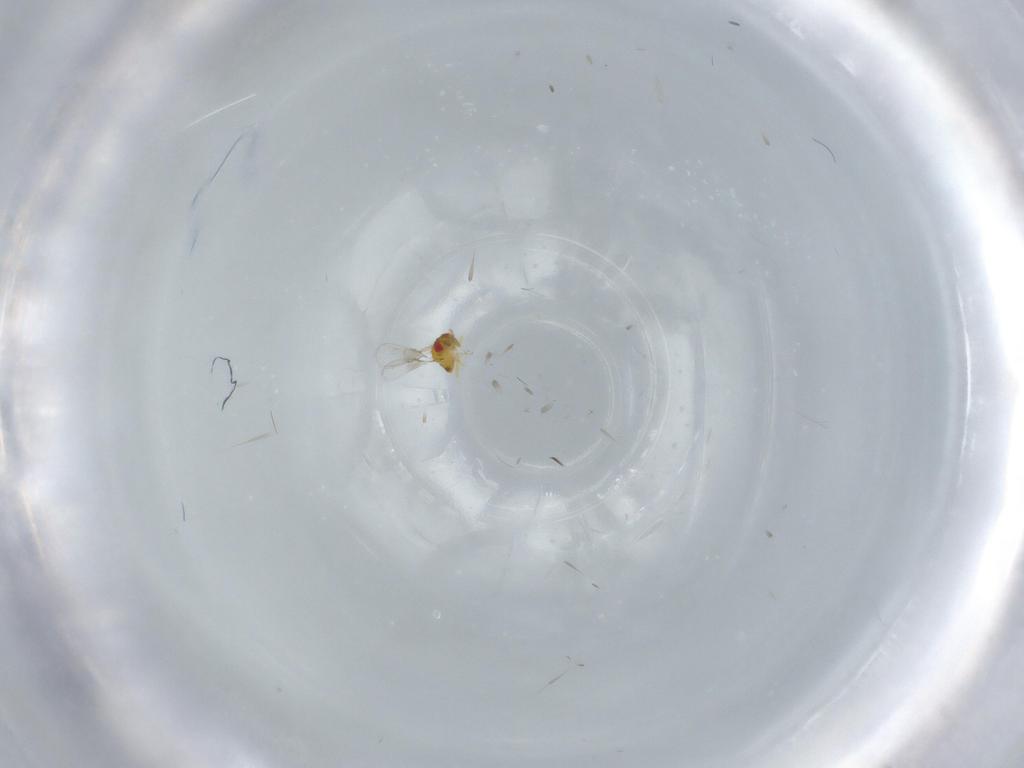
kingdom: Animalia
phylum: Arthropoda
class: Insecta
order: Hymenoptera
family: Trichogrammatidae
